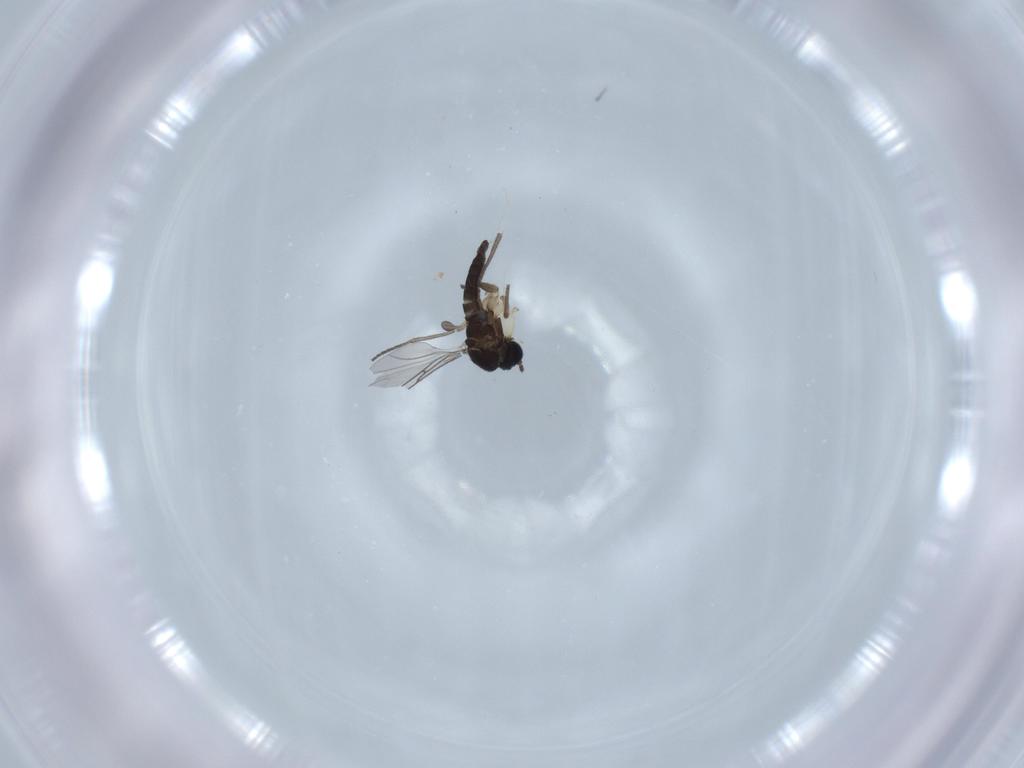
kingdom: Animalia
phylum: Arthropoda
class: Insecta
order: Diptera
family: Sciaridae
